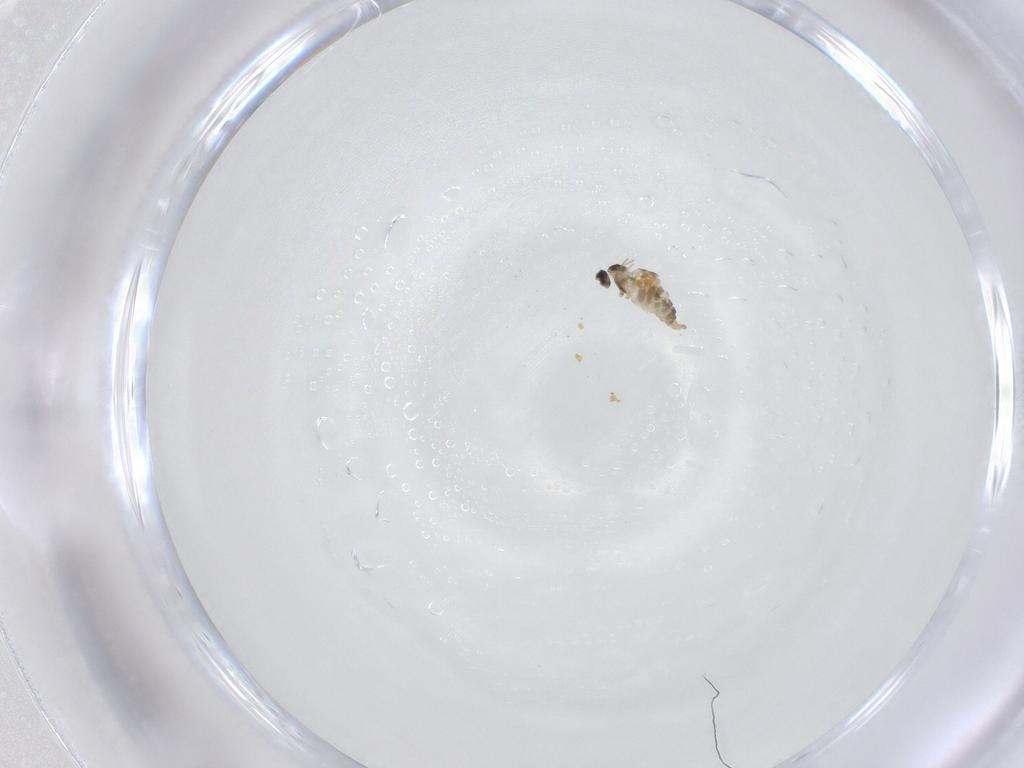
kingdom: Animalia
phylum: Arthropoda
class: Insecta
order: Diptera
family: Cecidomyiidae
